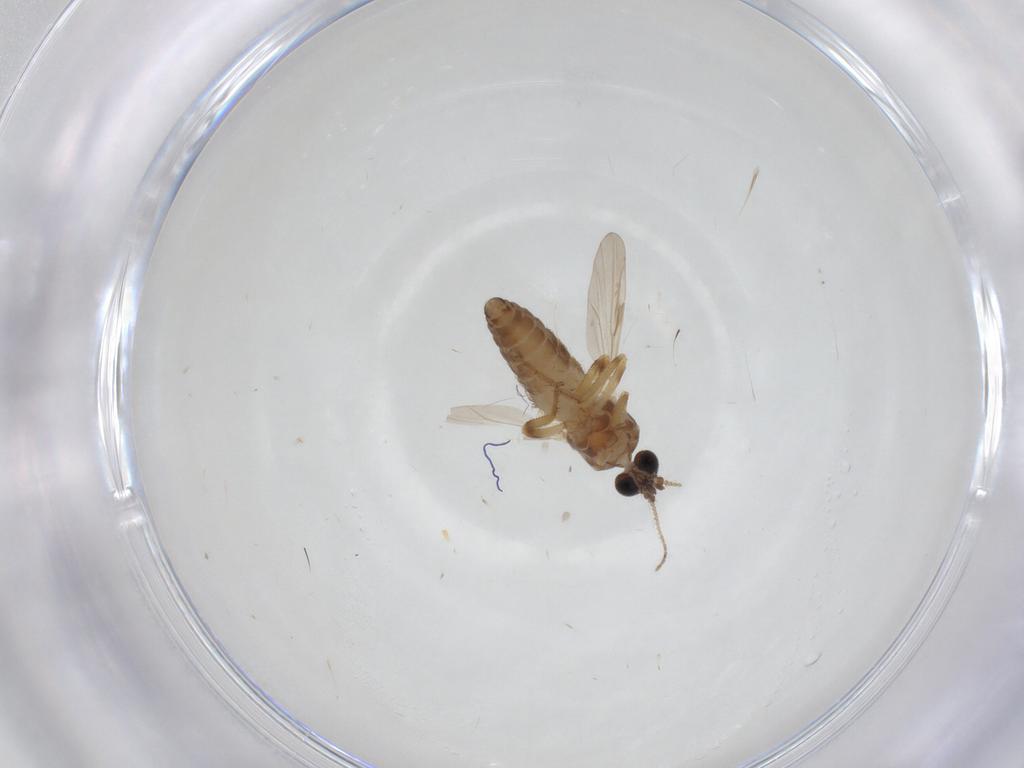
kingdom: Animalia
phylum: Arthropoda
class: Insecta
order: Diptera
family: Ceratopogonidae
